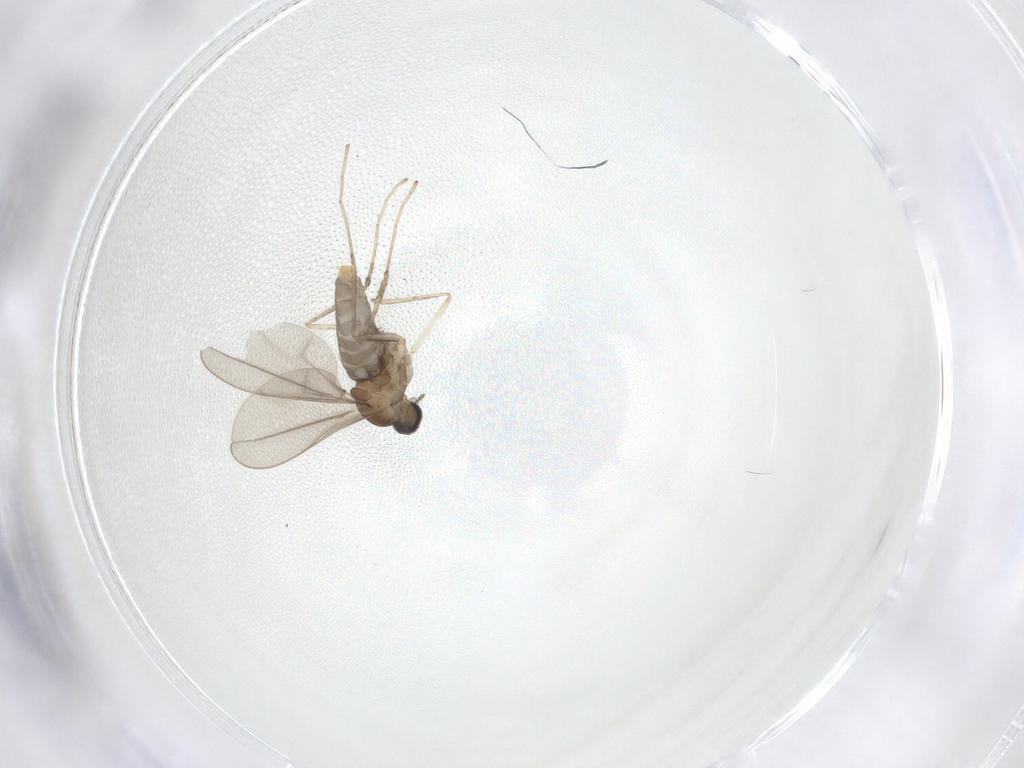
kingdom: Animalia
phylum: Arthropoda
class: Insecta
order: Diptera
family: Cecidomyiidae
